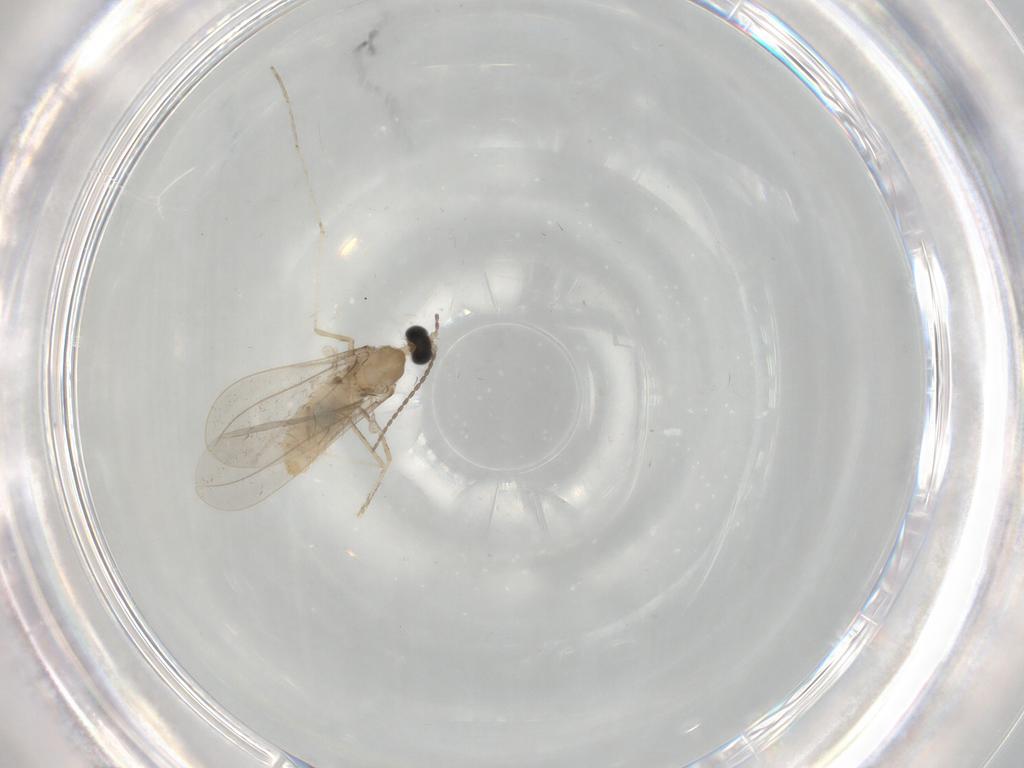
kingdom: Animalia
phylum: Arthropoda
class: Insecta
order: Diptera
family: Cecidomyiidae
